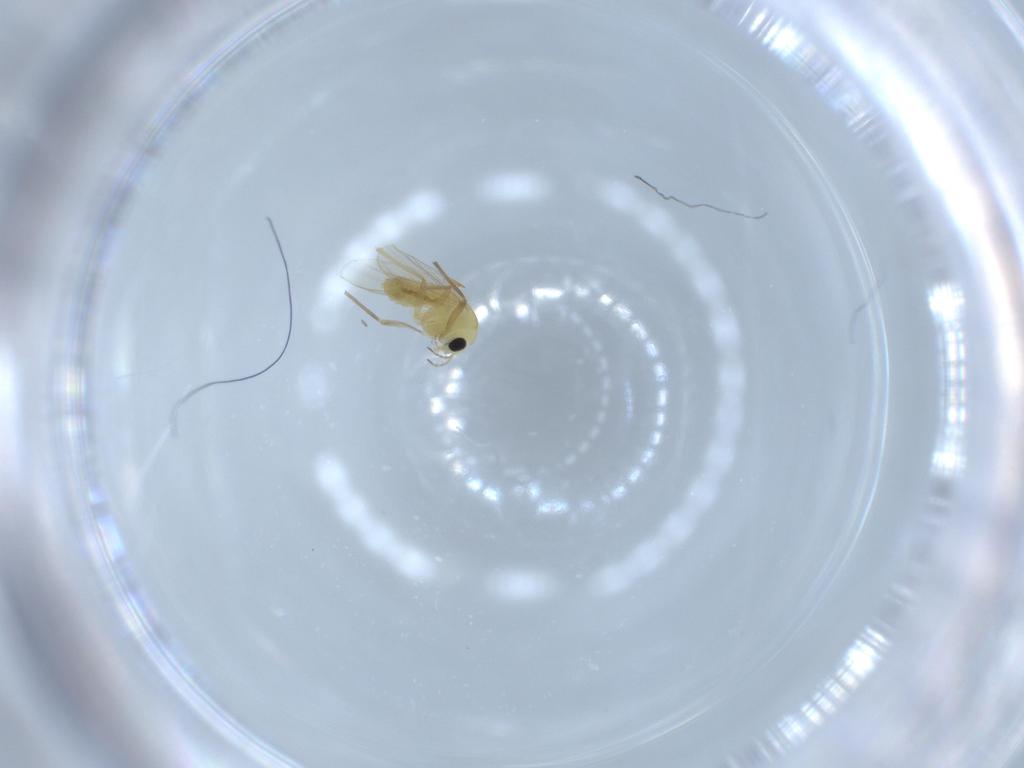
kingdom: Animalia
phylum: Arthropoda
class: Insecta
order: Diptera
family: Chironomidae
